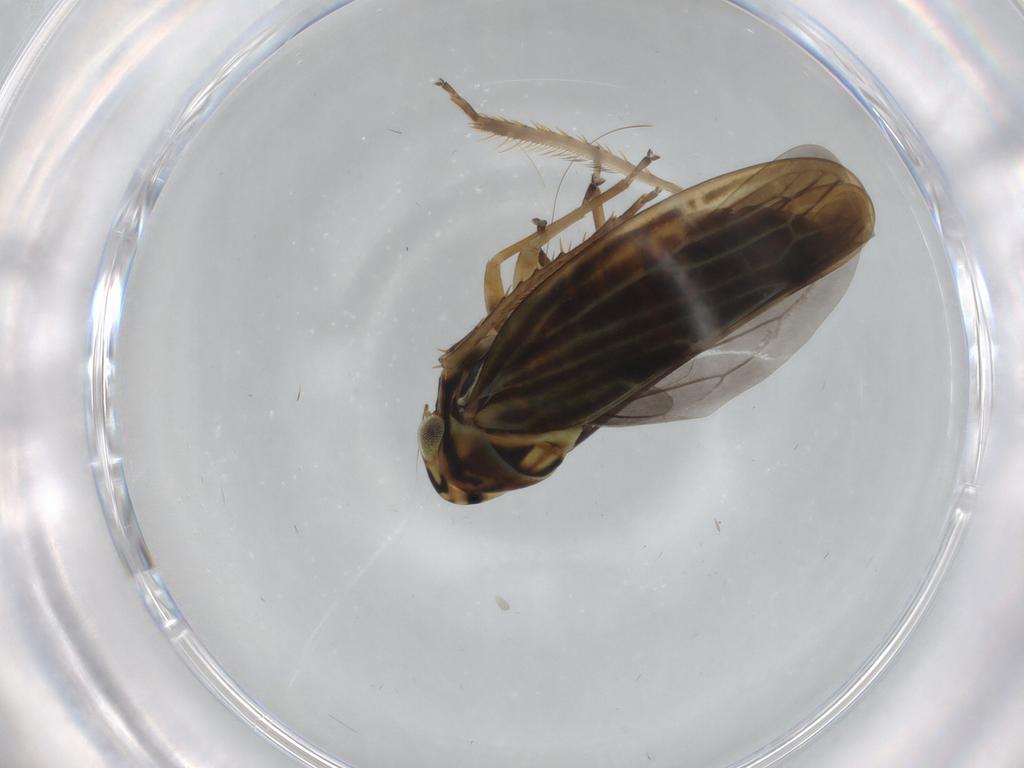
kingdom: Animalia
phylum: Arthropoda
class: Insecta
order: Hemiptera
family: Cicadellidae
